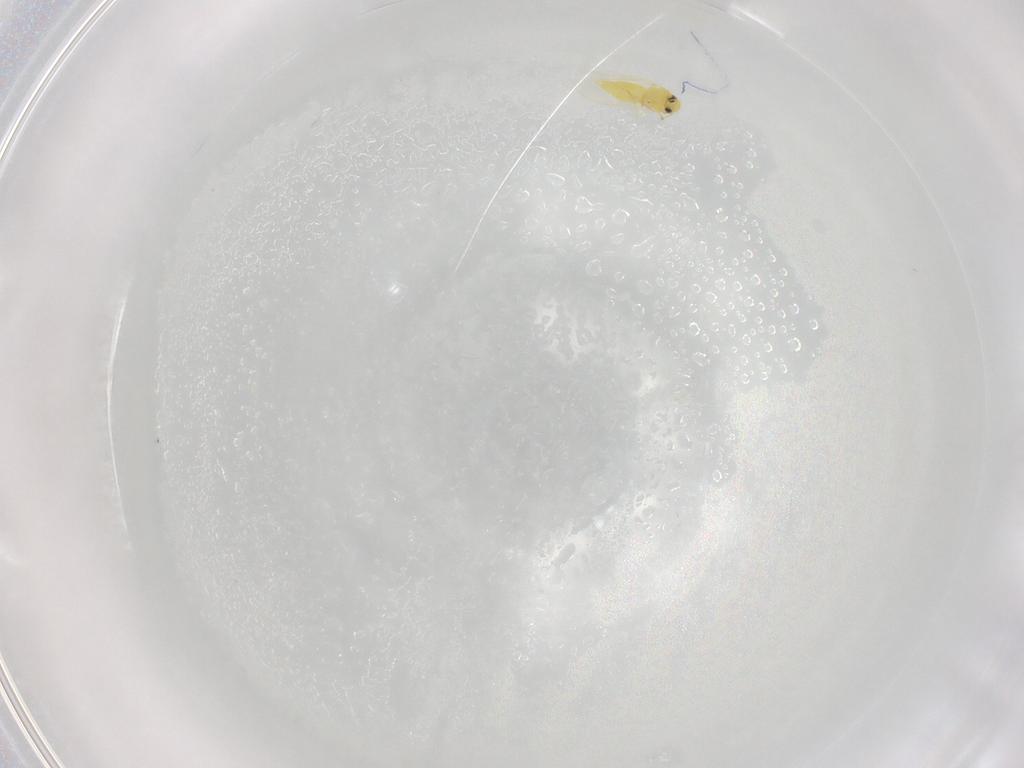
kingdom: Animalia
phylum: Arthropoda
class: Insecta
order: Hemiptera
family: Aleyrodidae
